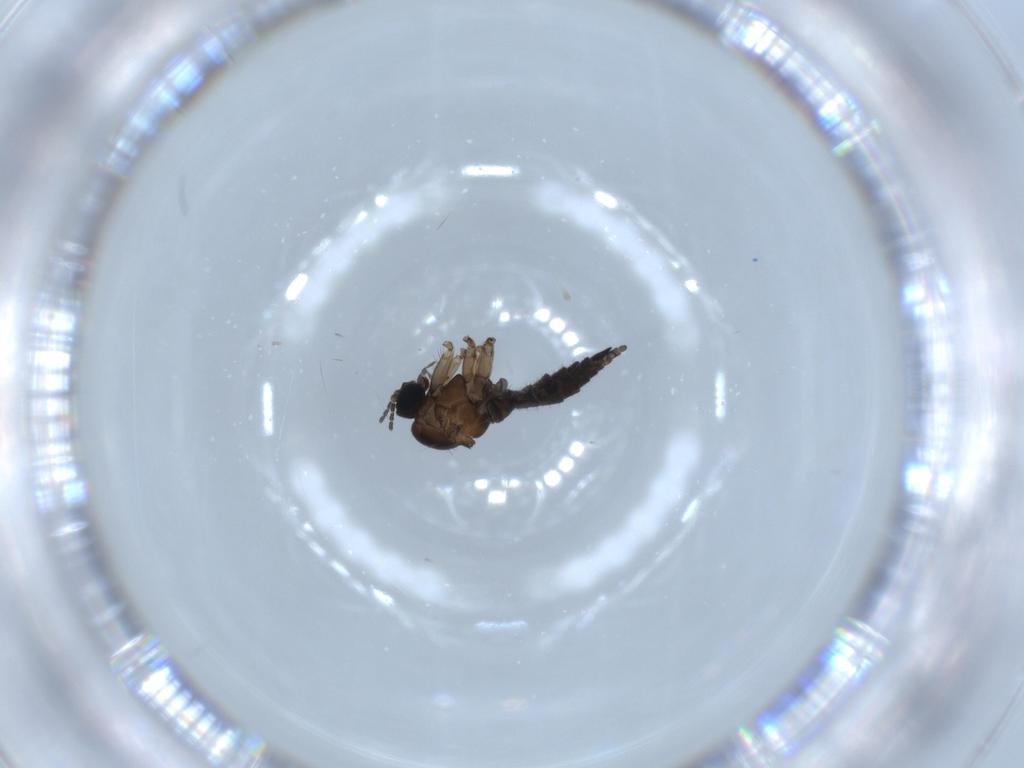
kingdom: Animalia
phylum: Arthropoda
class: Insecta
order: Diptera
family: Sciaridae
